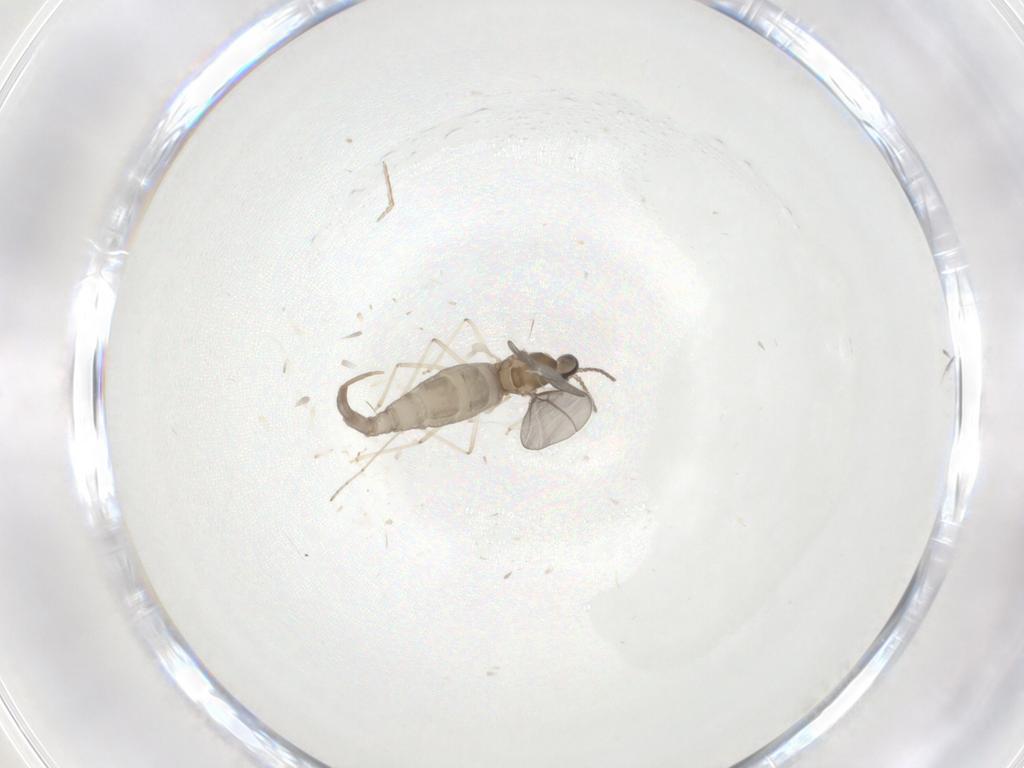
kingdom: Animalia
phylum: Arthropoda
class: Insecta
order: Diptera
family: Cecidomyiidae
